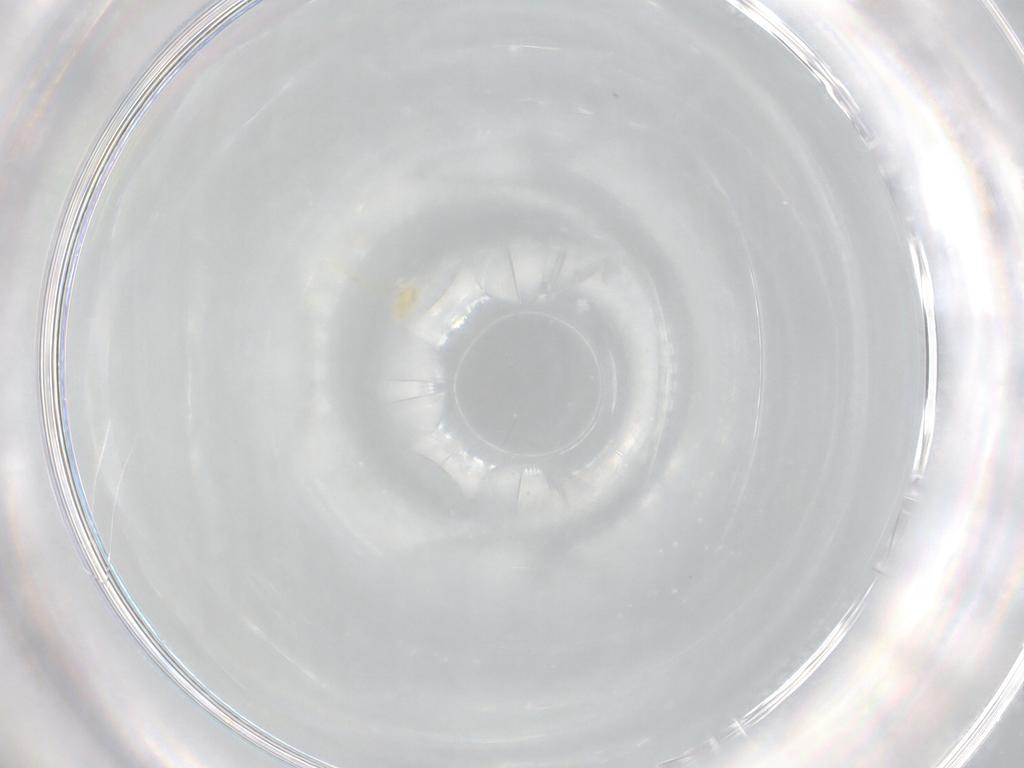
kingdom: Animalia
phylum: Arthropoda
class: Arachnida
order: Trombidiformes
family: Eupodidae
